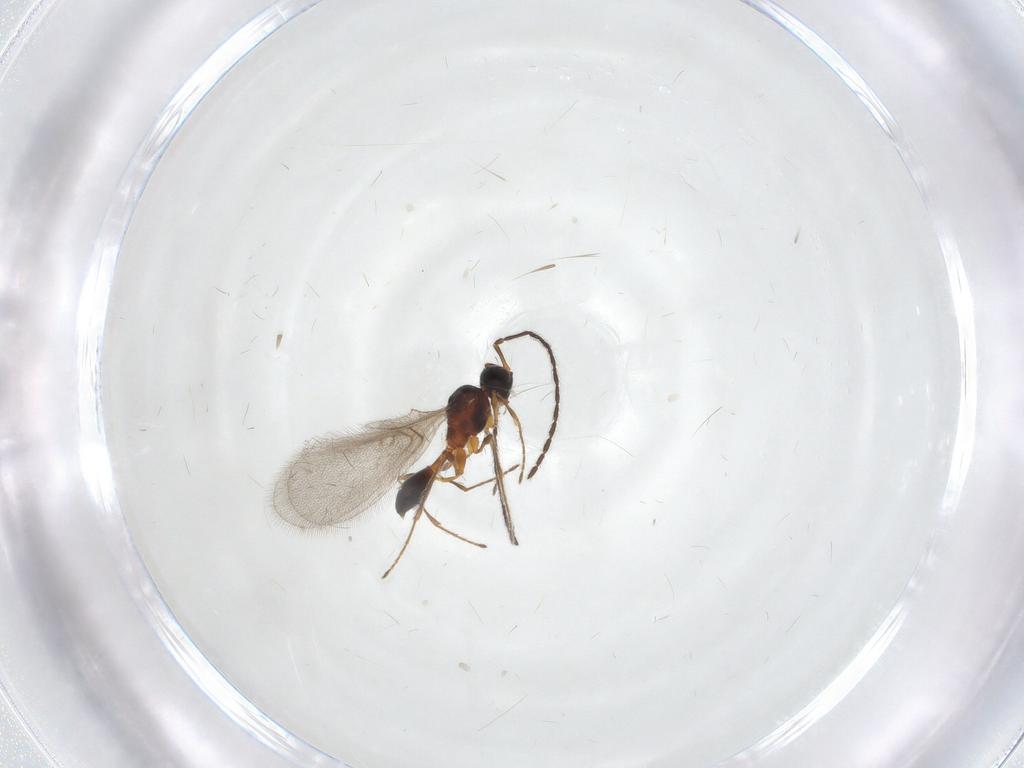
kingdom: Animalia
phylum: Arthropoda
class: Insecta
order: Hymenoptera
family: Diapriidae
